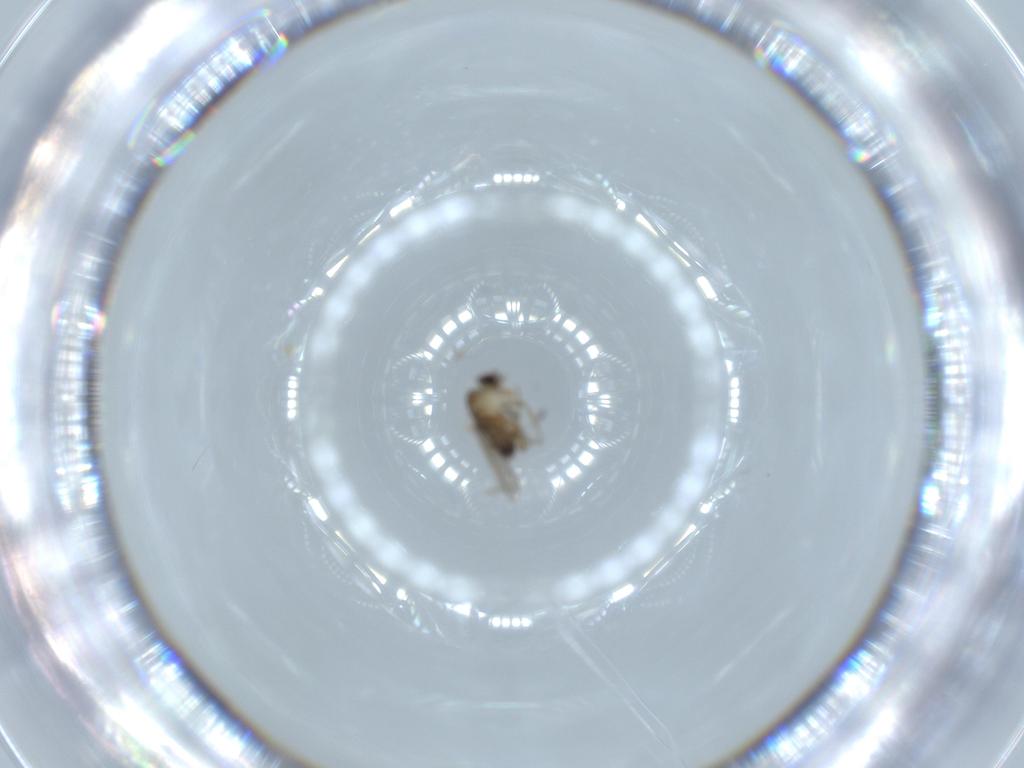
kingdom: Animalia
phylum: Arthropoda
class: Insecta
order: Diptera
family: Phoridae
